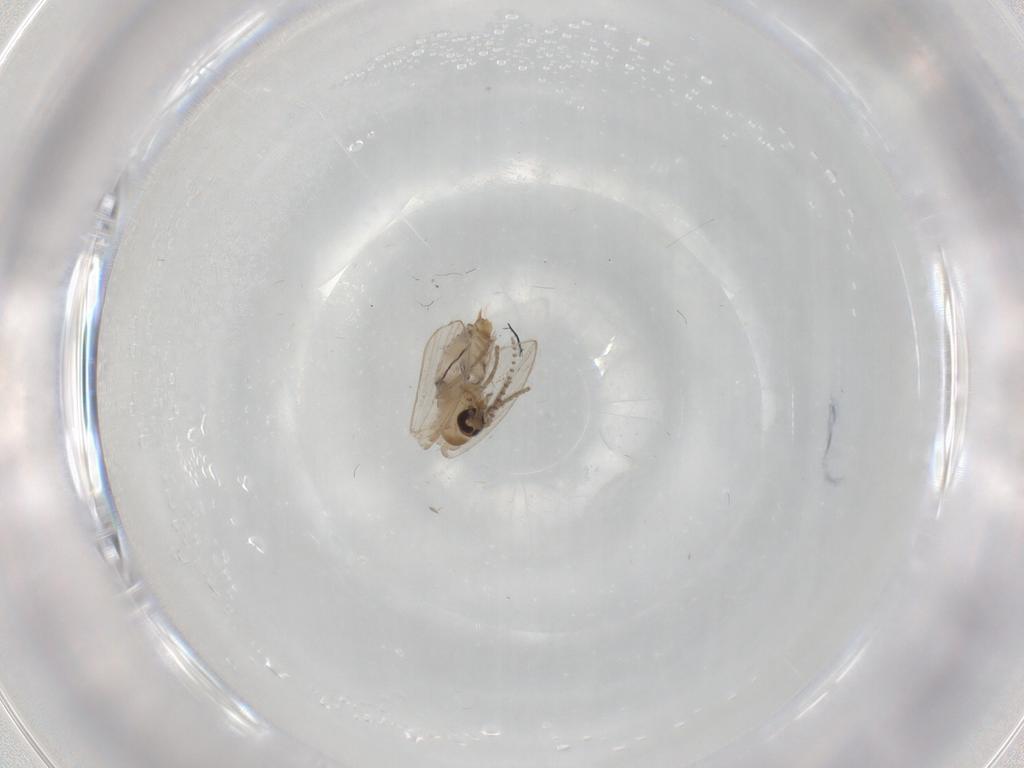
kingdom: Animalia
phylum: Arthropoda
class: Insecta
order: Diptera
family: Psychodidae
